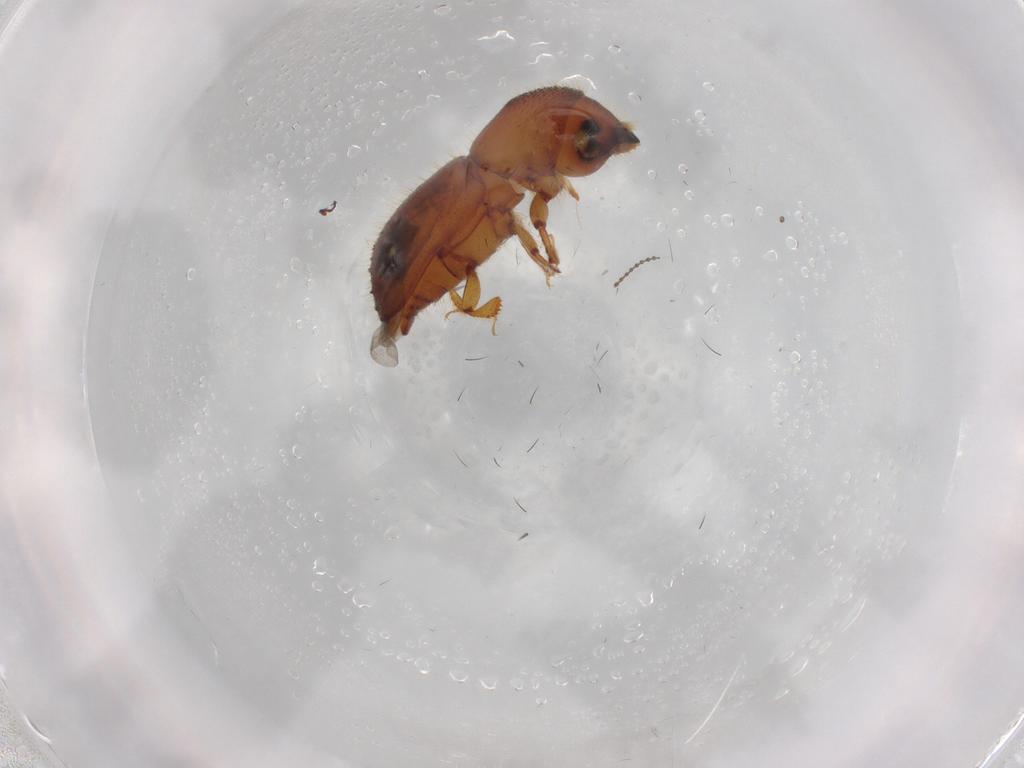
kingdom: Animalia
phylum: Arthropoda
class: Insecta
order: Coleoptera
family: Curculionidae
